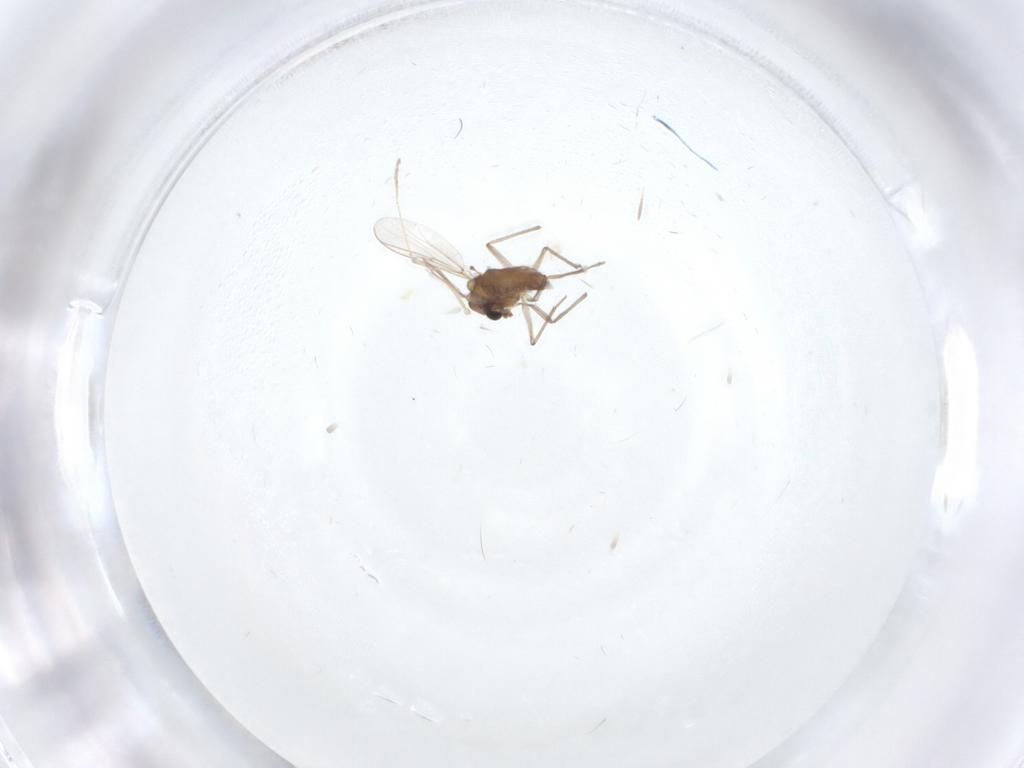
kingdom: Animalia
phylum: Arthropoda
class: Insecta
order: Diptera
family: Chironomidae
